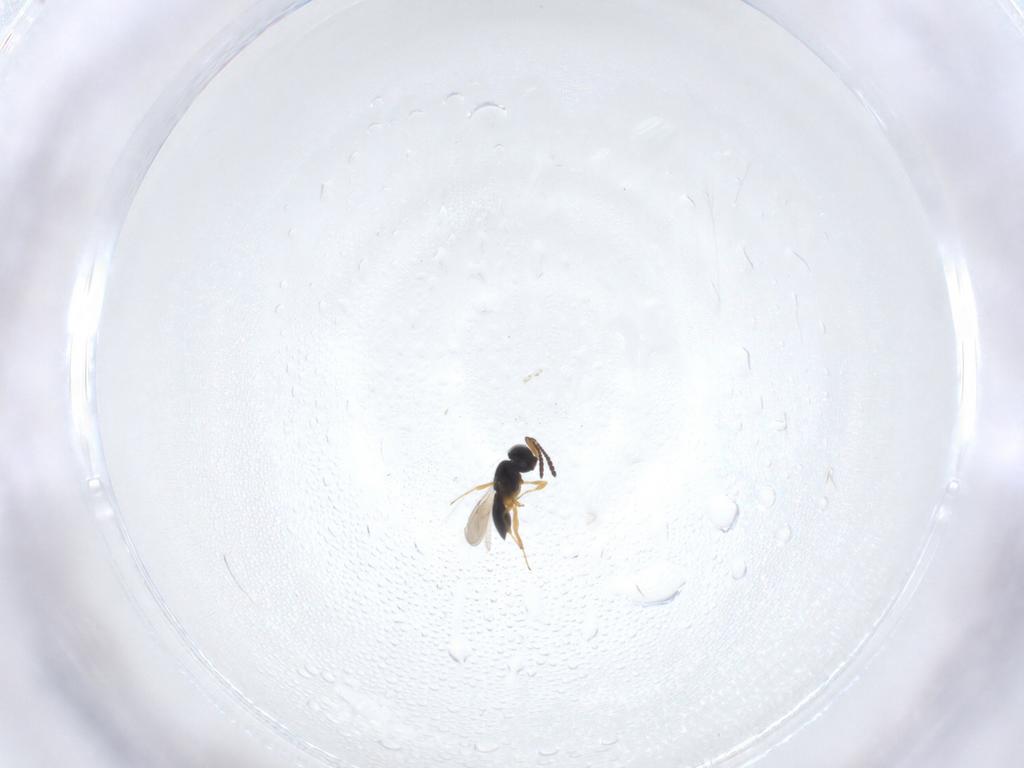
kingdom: Animalia
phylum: Arthropoda
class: Insecta
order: Hymenoptera
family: Scelionidae
